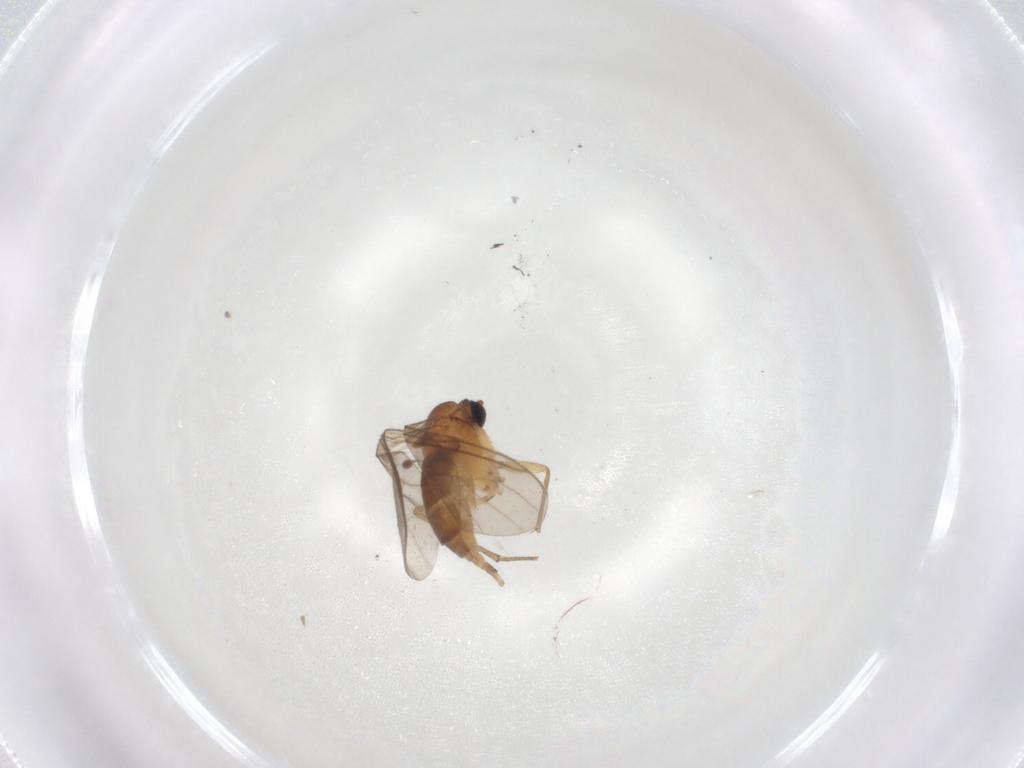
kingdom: Animalia
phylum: Arthropoda
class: Insecta
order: Diptera
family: Sciaridae
